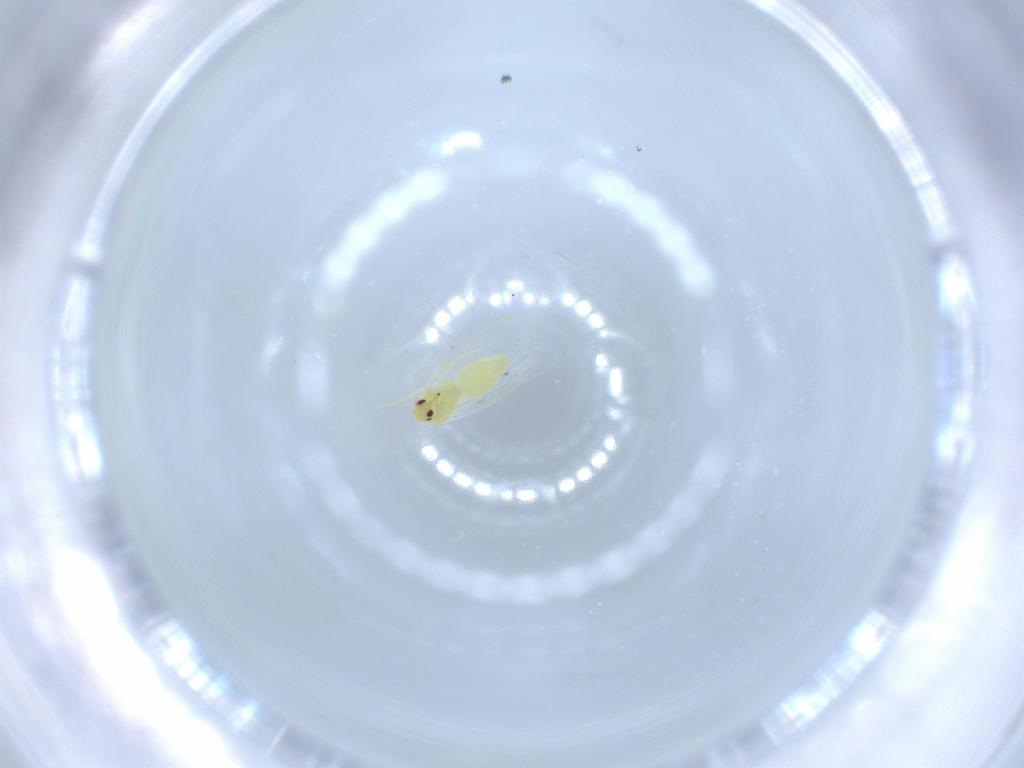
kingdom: Animalia
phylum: Arthropoda
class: Insecta
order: Hemiptera
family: Aleyrodidae
